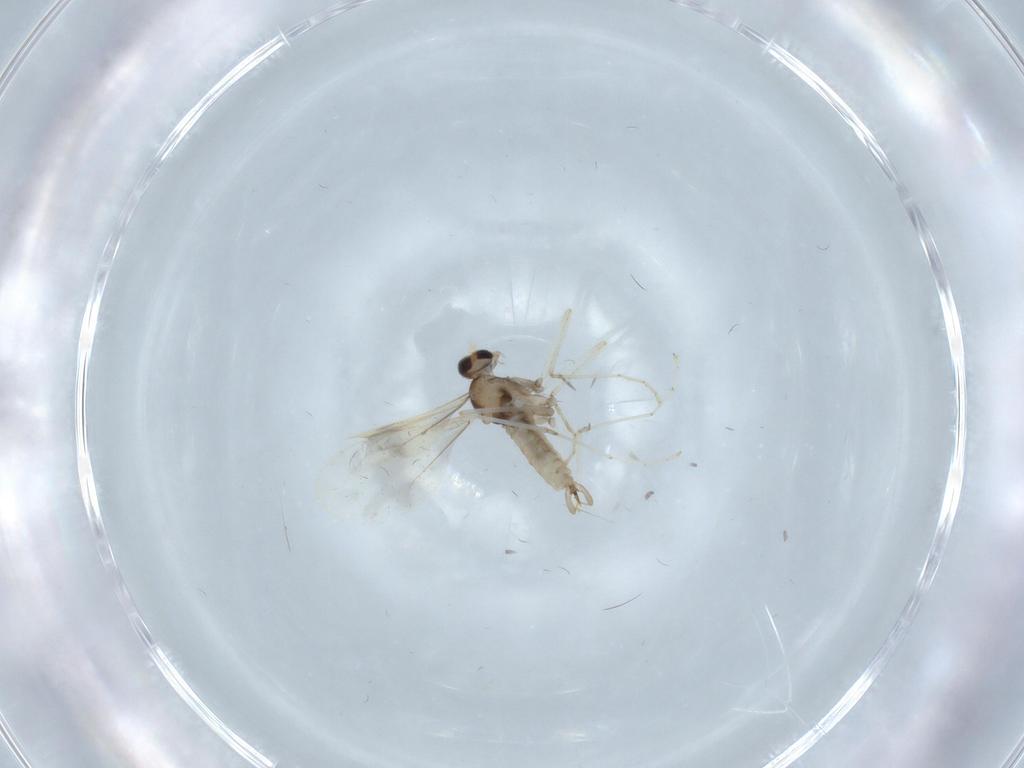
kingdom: Animalia
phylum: Arthropoda
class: Insecta
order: Diptera
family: Cecidomyiidae
